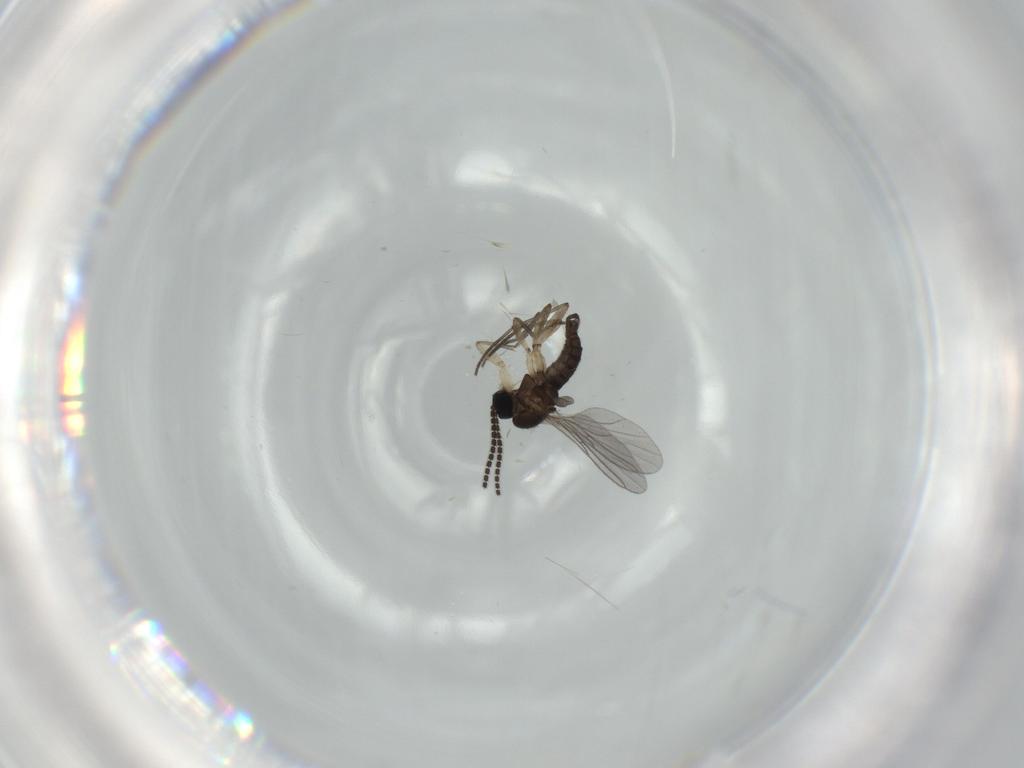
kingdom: Animalia
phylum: Arthropoda
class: Insecta
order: Diptera
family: Sciaridae
